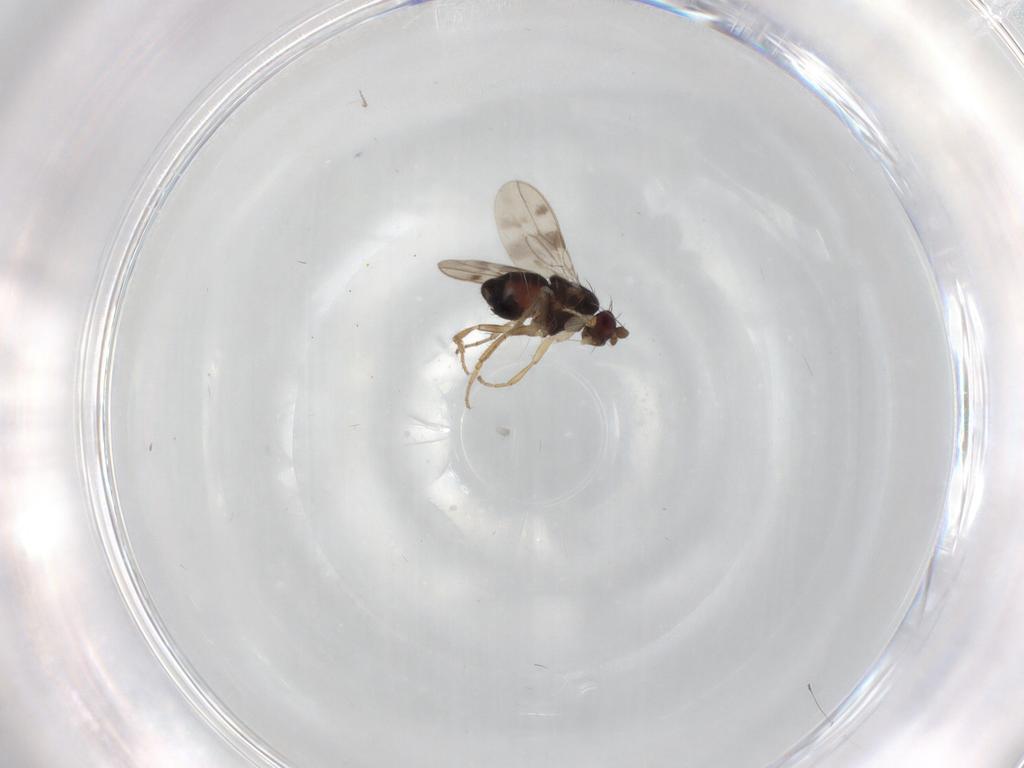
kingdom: Animalia
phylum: Arthropoda
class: Insecta
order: Diptera
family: Sphaeroceridae
